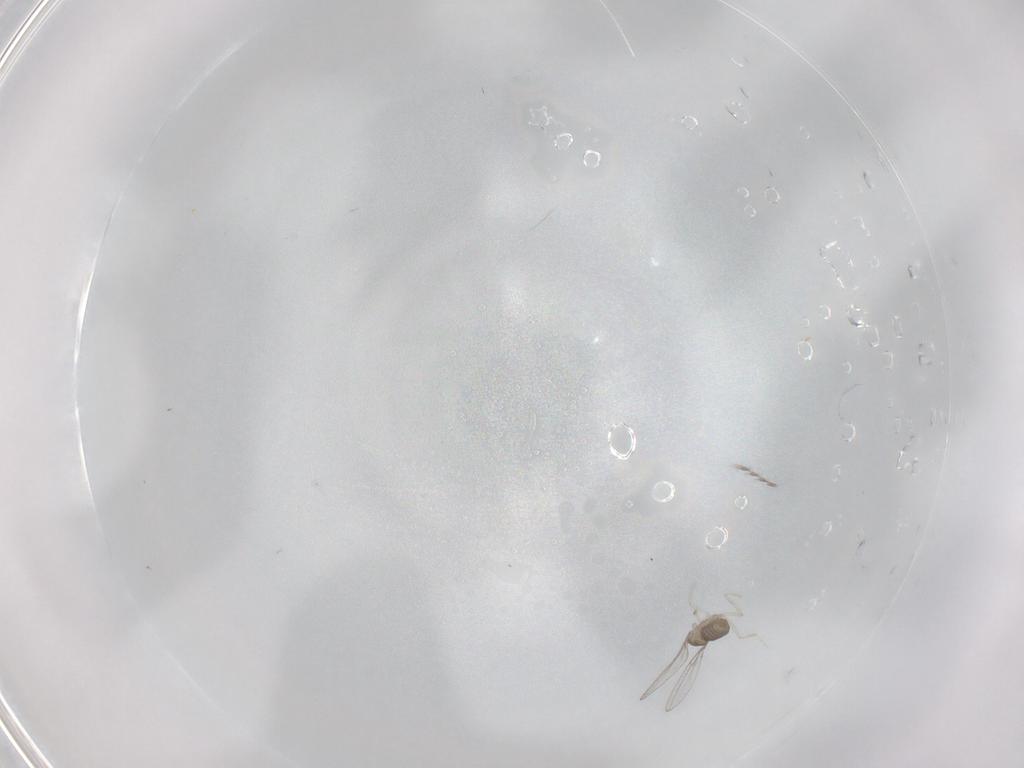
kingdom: Animalia
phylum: Arthropoda
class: Insecta
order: Diptera
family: Cecidomyiidae
